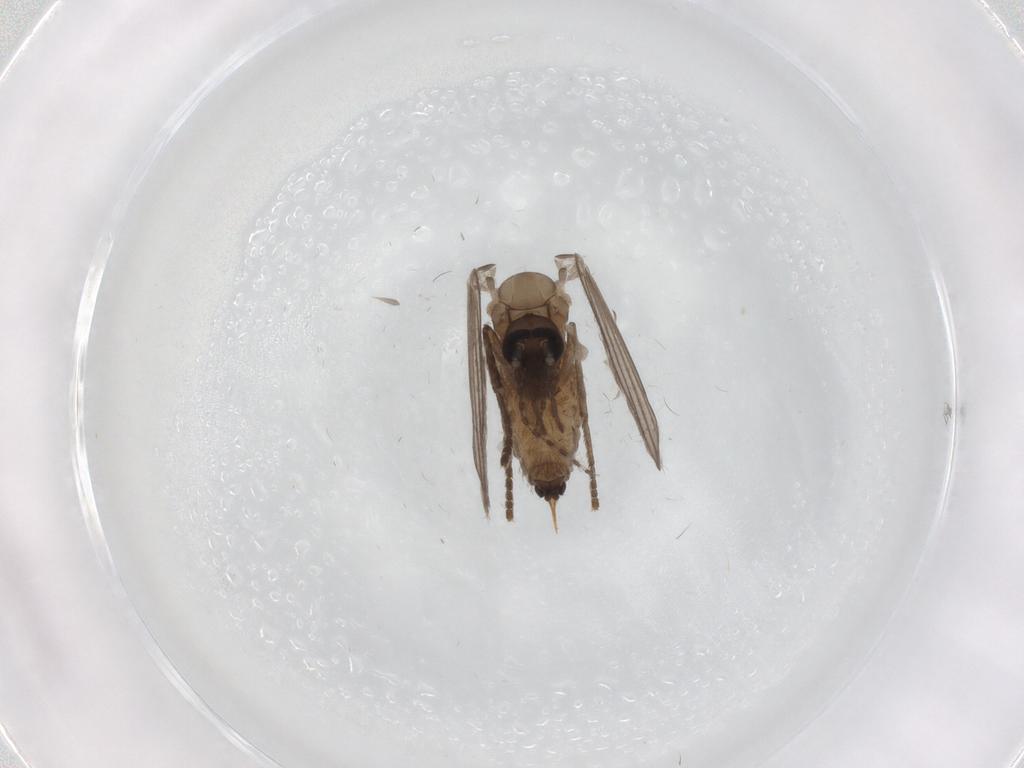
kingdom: Animalia
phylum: Arthropoda
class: Insecta
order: Diptera
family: Psychodidae
